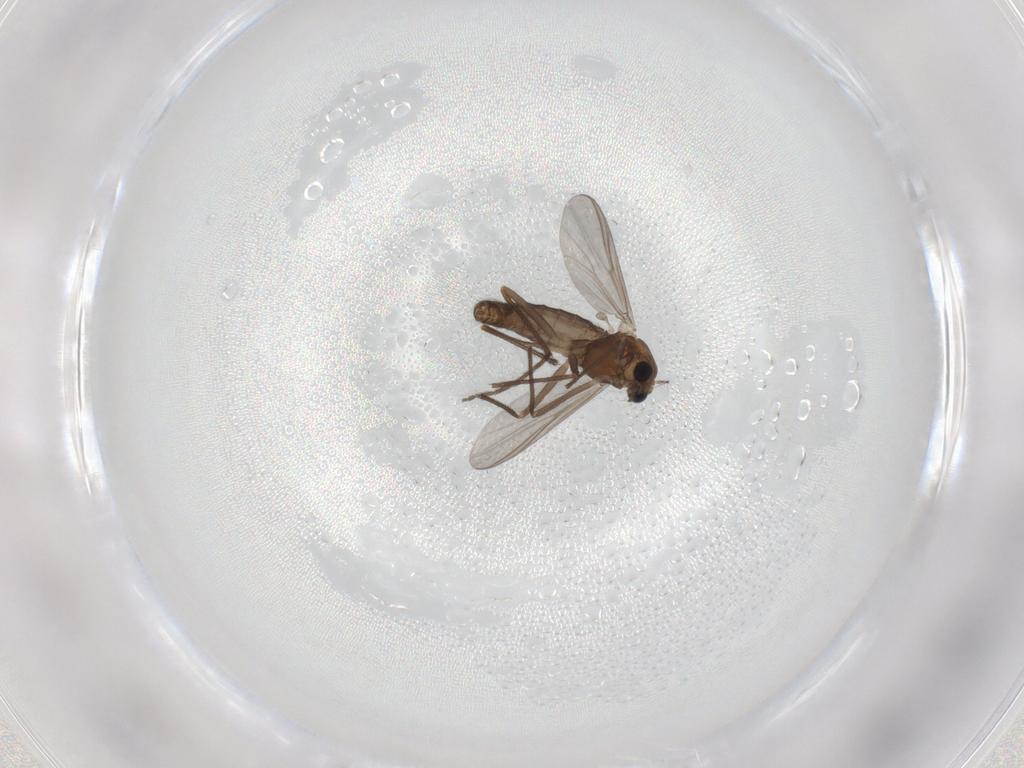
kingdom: Animalia
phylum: Arthropoda
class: Insecta
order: Diptera
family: Chironomidae
